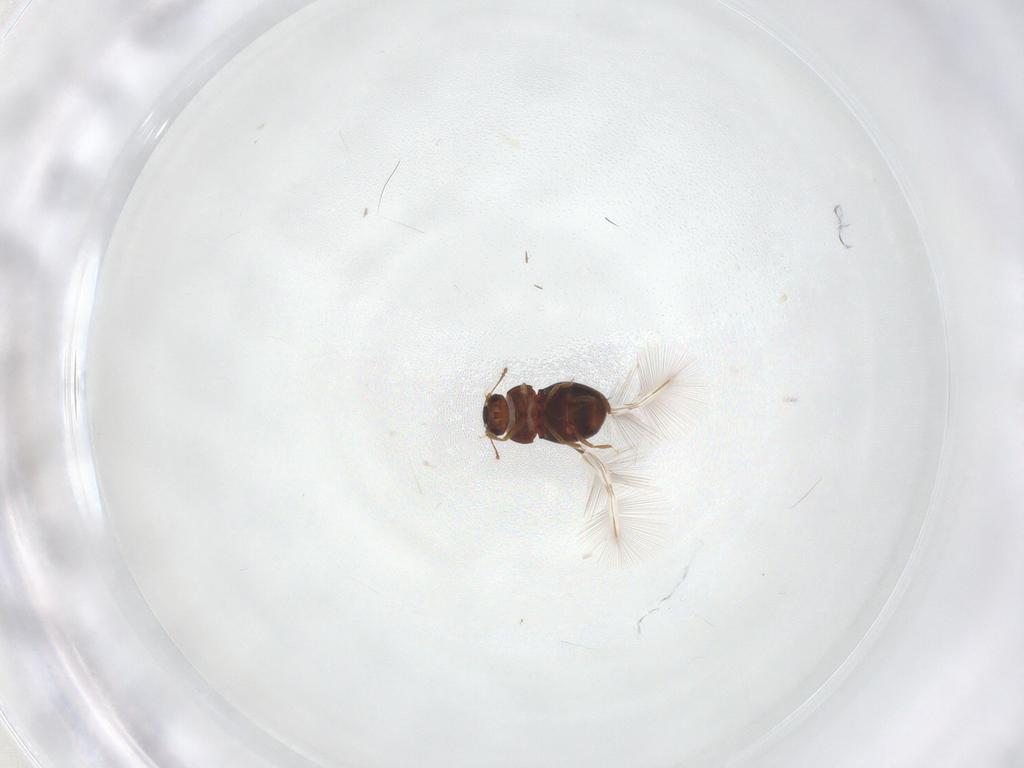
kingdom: Animalia
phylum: Arthropoda
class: Insecta
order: Coleoptera
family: Ptiliidae
